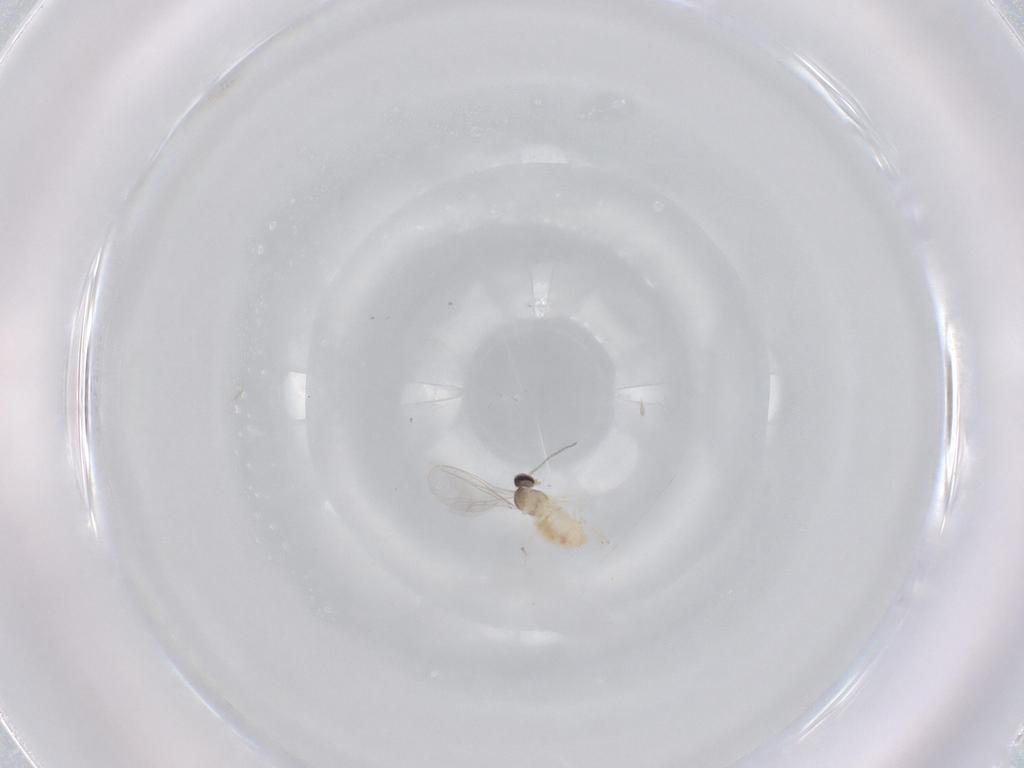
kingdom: Animalia
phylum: Arthropoda
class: Insecta
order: Diptera
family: Cecidomyiidae
